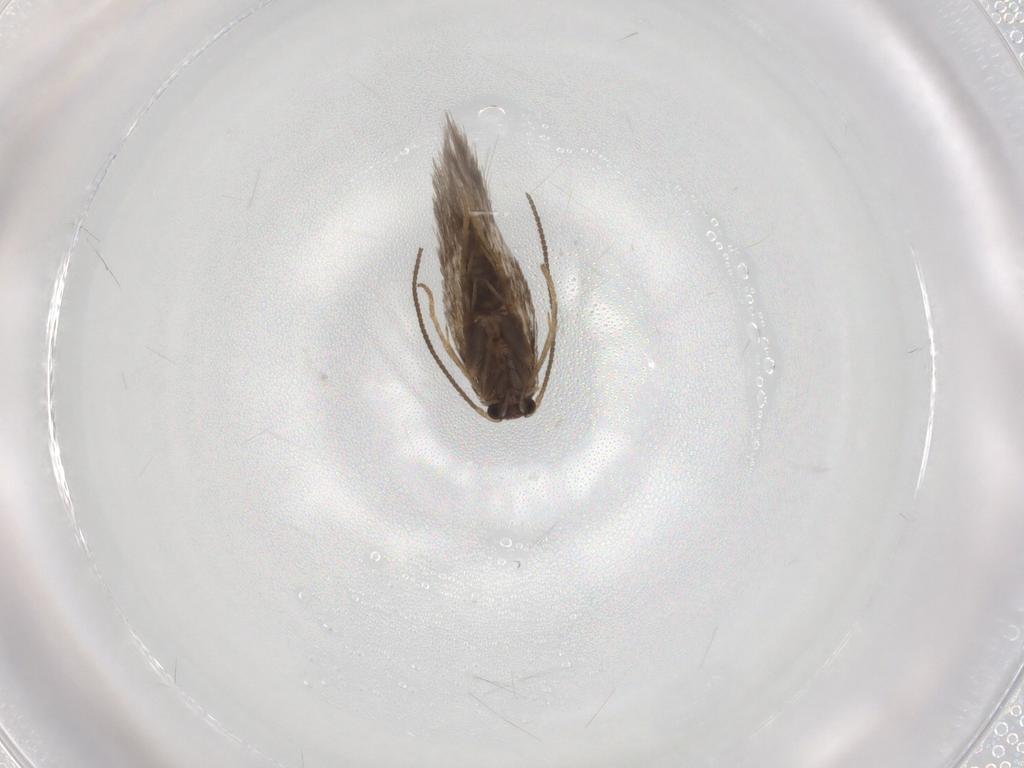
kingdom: Animalia
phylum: Arthropoda
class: Insecta
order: Lepidoptera
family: Nepticulidae
